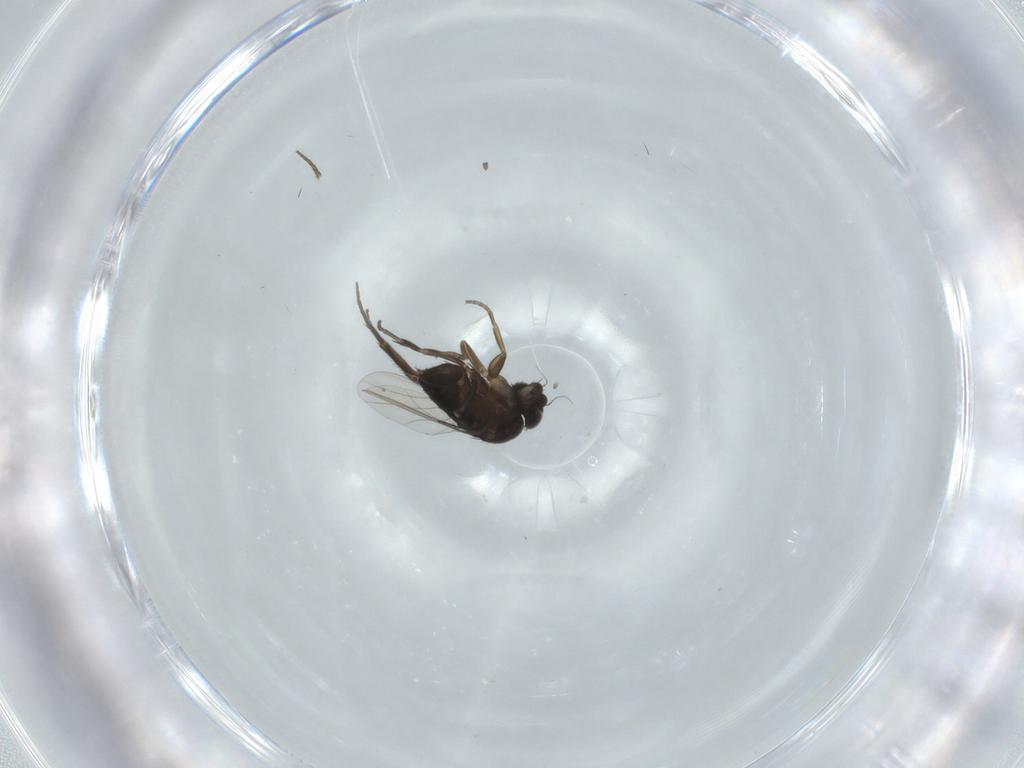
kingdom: Animalia
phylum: Arthropoda
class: Insecta
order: Diptera
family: Phoridae
